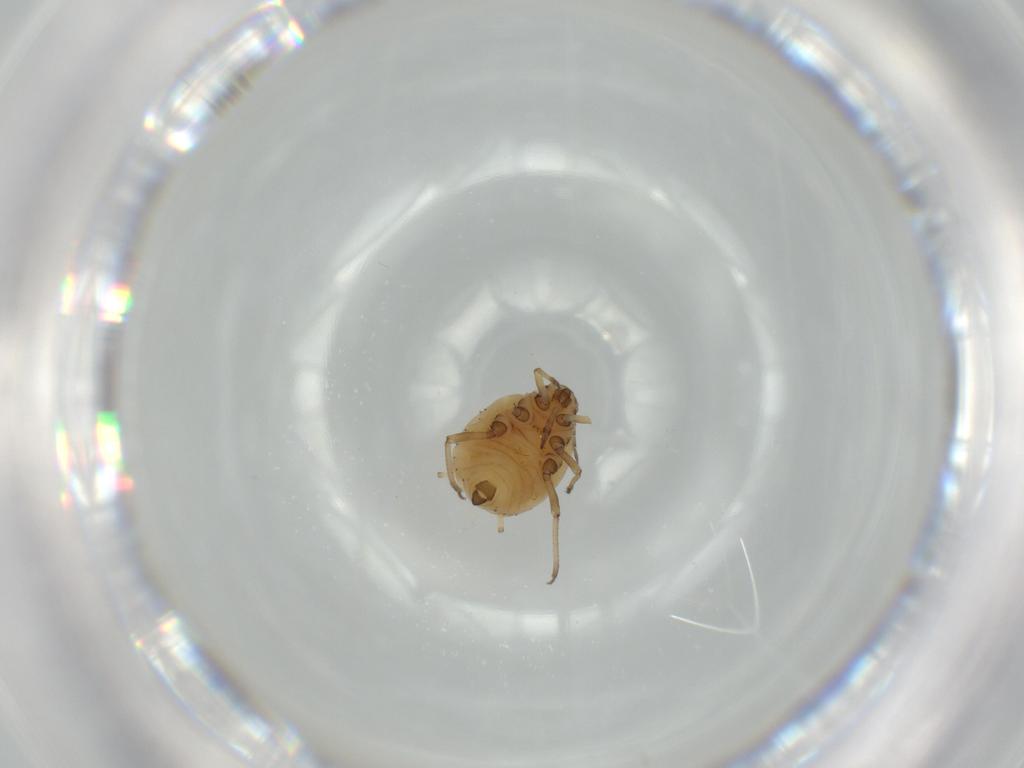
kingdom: Animalia
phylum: Arthropoda
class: Insecta
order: Hemiptera
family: Aphididae
